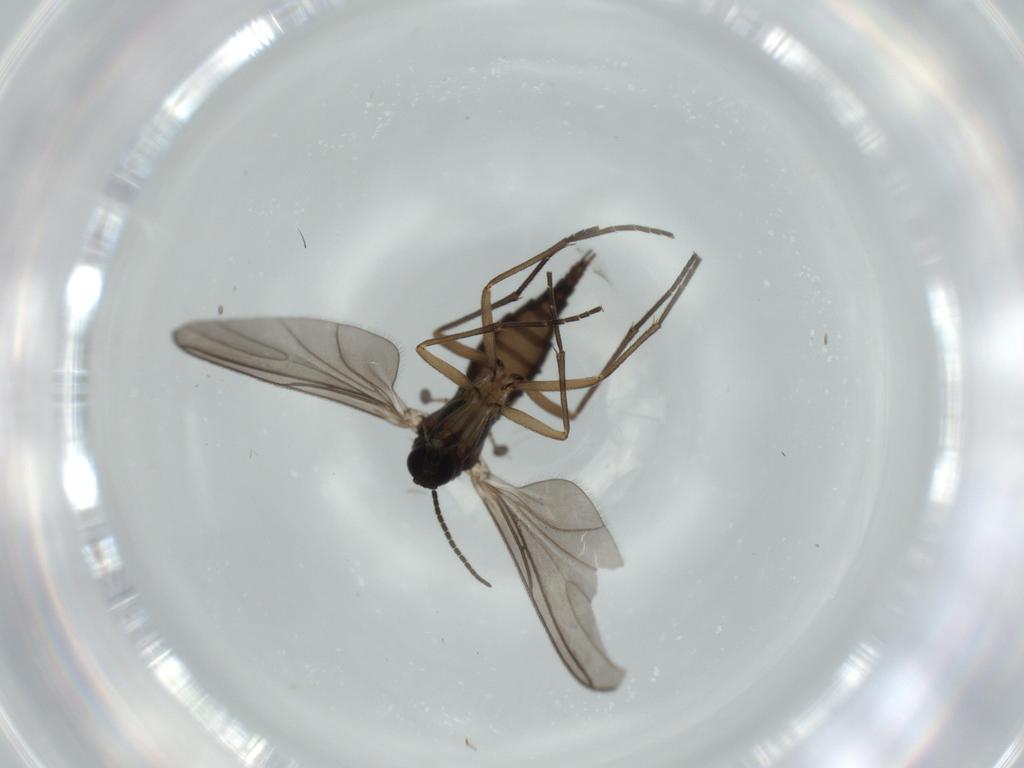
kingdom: Animalia
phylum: Arthropoda
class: Insecta
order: Diptera
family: Sciaridae
